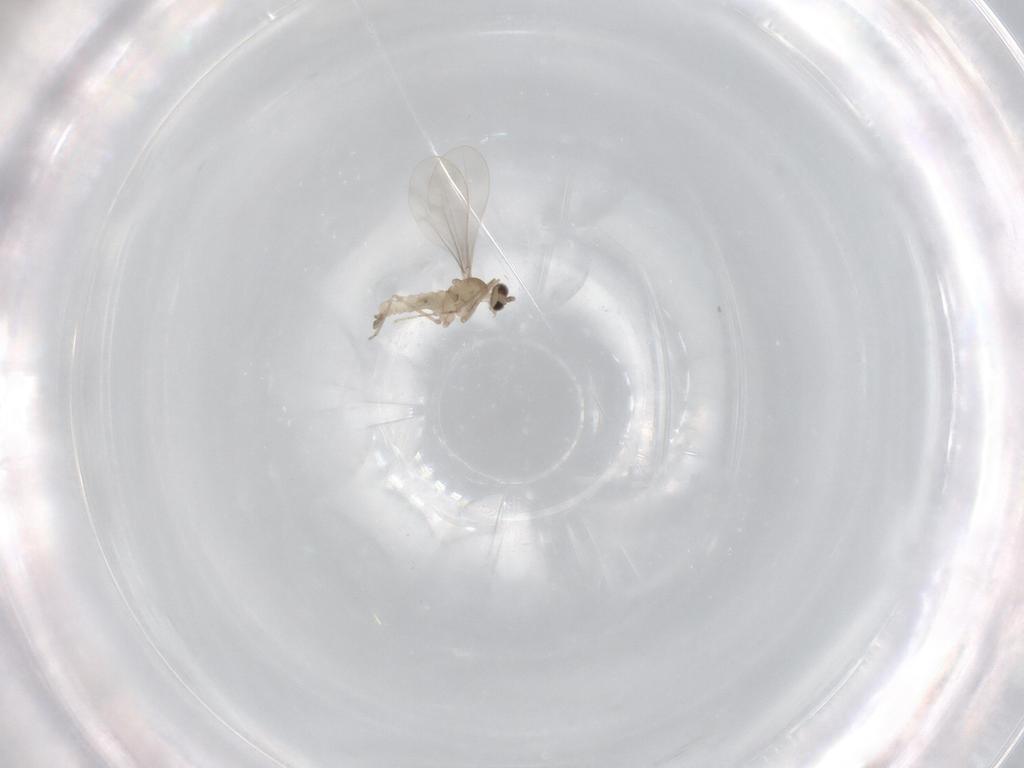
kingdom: Animalia
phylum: Arthropoda
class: Insecta
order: Diptera
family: Cecidomyiidae
